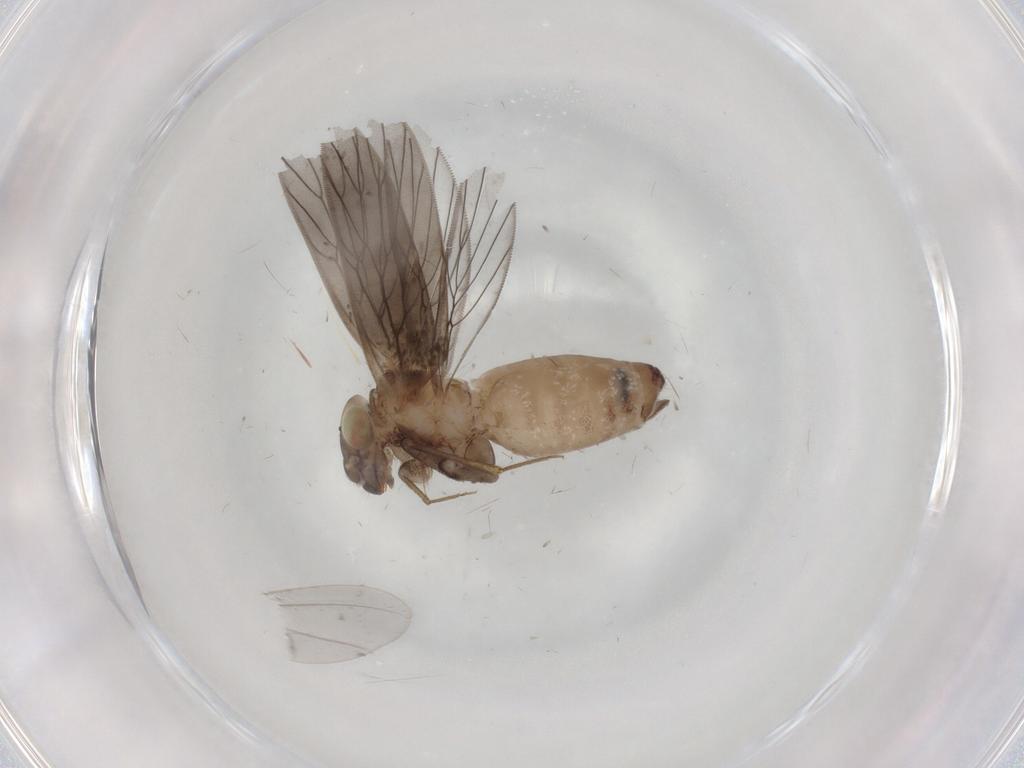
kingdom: Animalia
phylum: Arthropoda
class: Insecta
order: Psocodea
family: Lepidopsocidae
